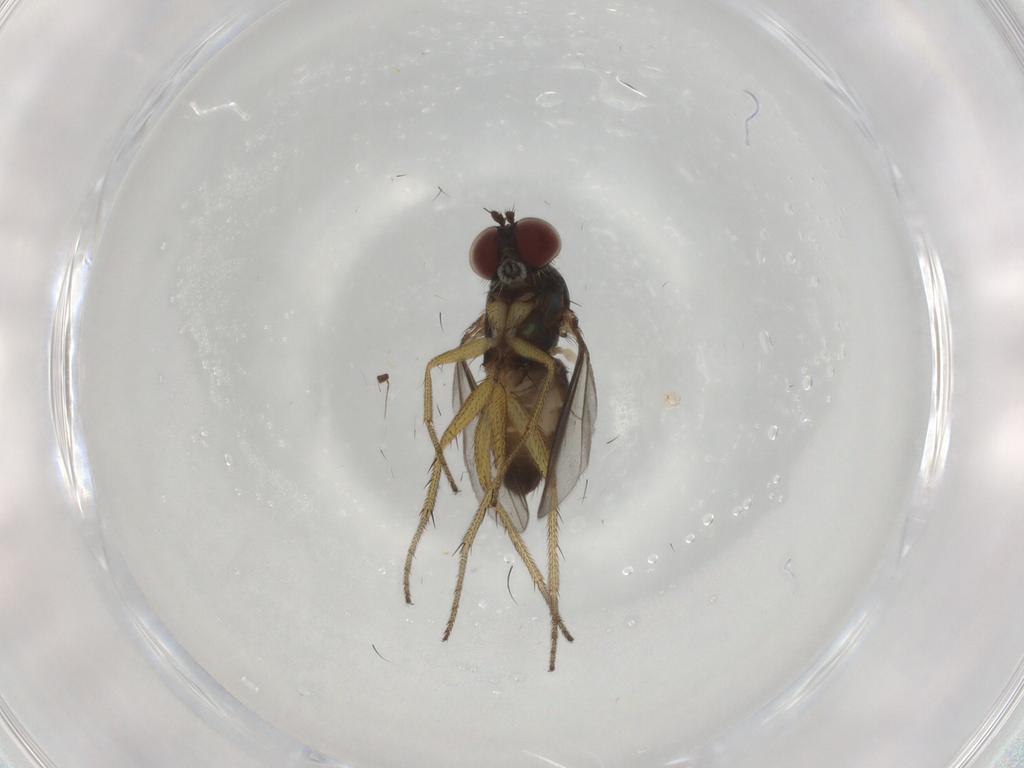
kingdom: Animalia
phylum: Arthropoda
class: Insecta
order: Diptera
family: Dolichopodidae
